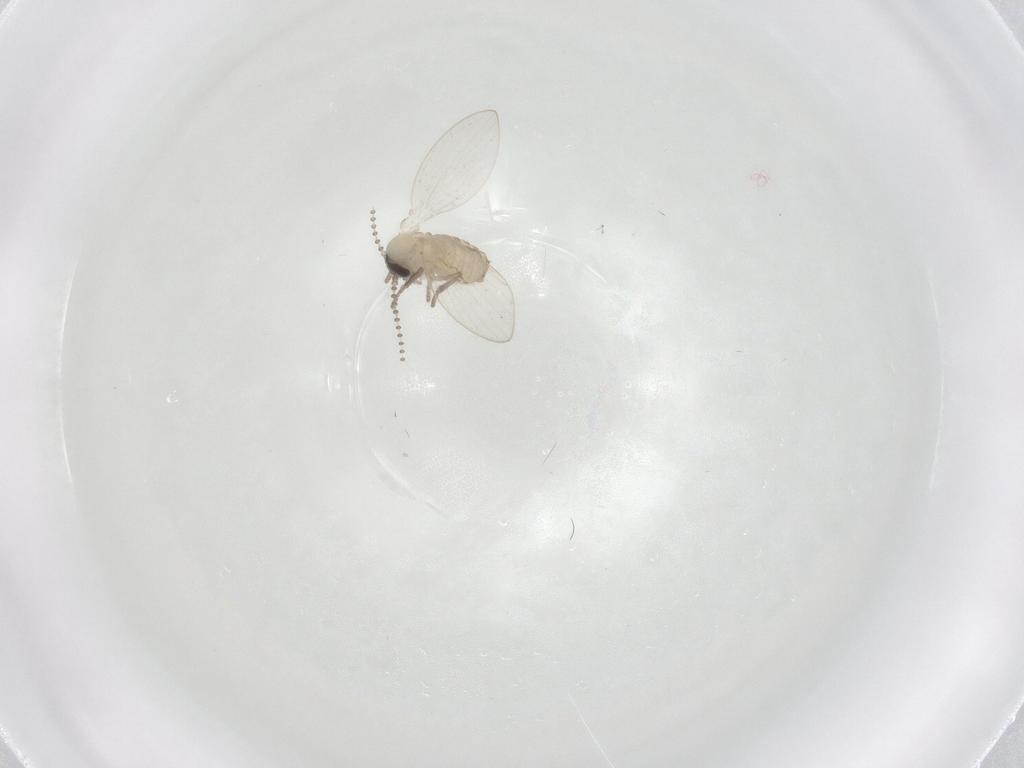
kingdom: Animalia
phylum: Arthropoda
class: Insecta
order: Diptera
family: Psychodidae
